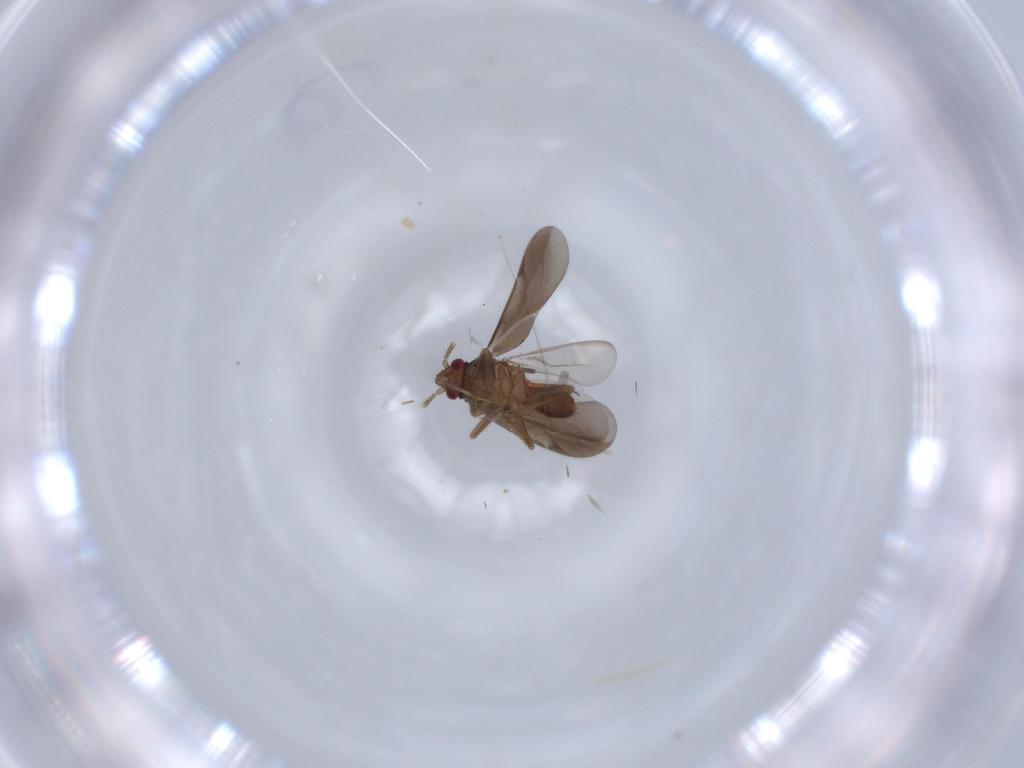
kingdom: Animalia
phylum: Arthropoda
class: Insecta
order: Hemiptera
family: Ceratocombidae
